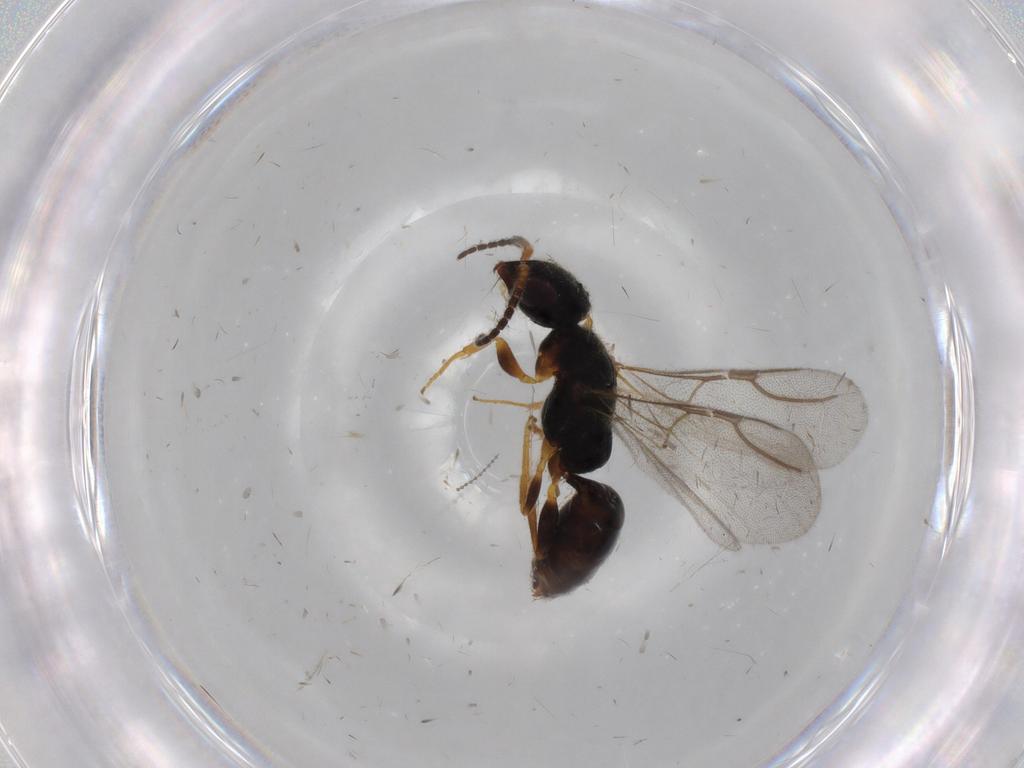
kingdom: Animalia
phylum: Arthropoda
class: Insecta
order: Hymenoptera
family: Bethylidae
